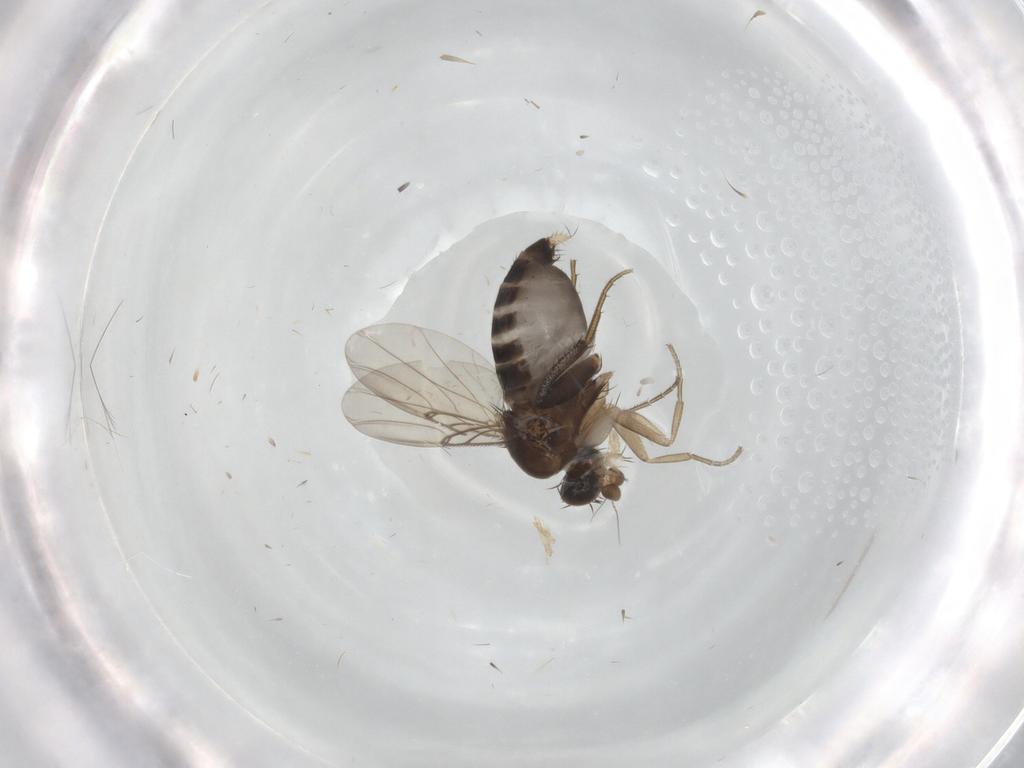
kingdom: Animalia
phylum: Arthropoda
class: Insecta
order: Diptera
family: Phoridae
